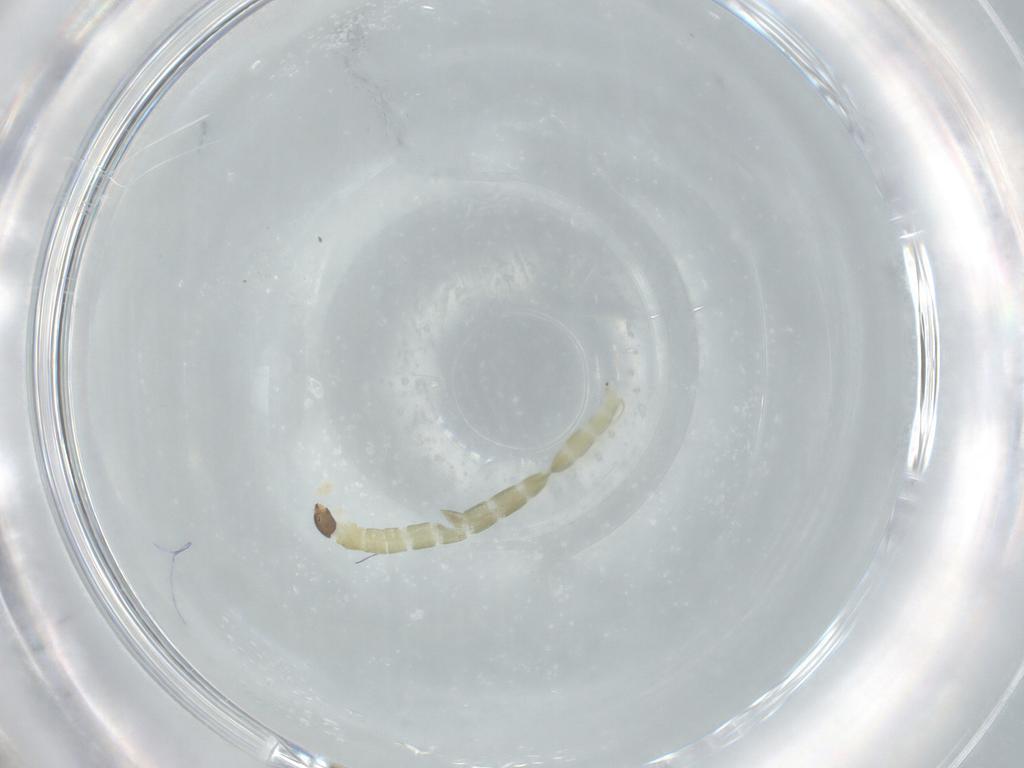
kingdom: Animalia
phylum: Arthropoda
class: Insecta
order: Diptera
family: Chironomidae
